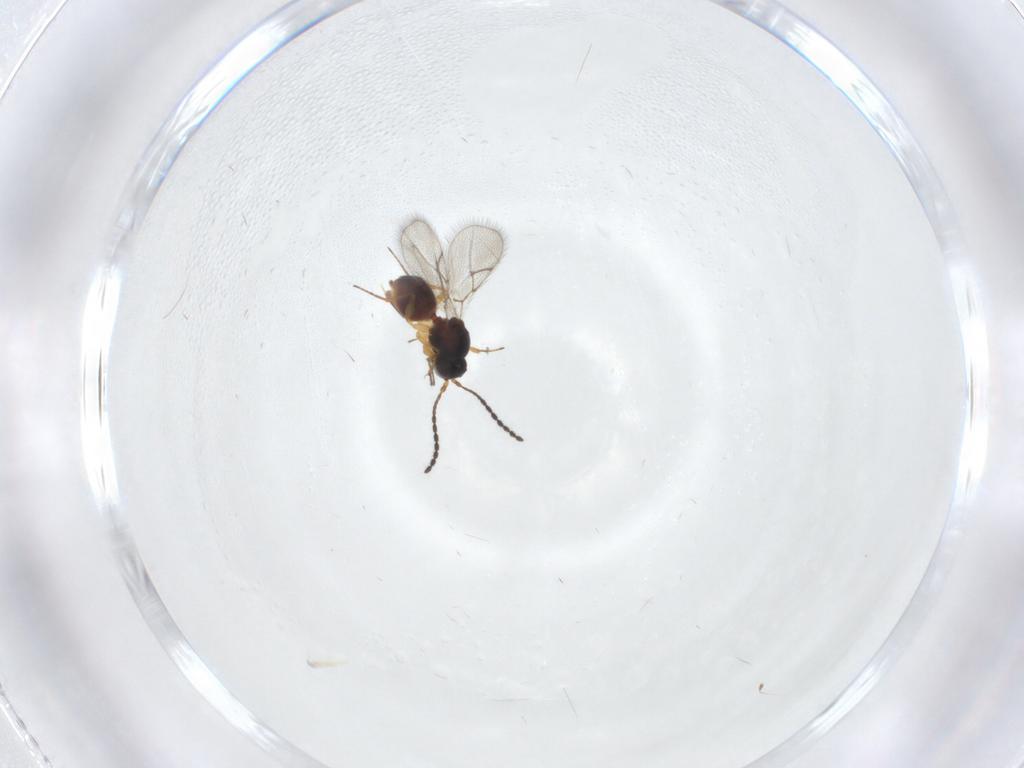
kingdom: Animalia
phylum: Arthropoda
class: Insecta
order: Hymenoptera
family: Figitidae
